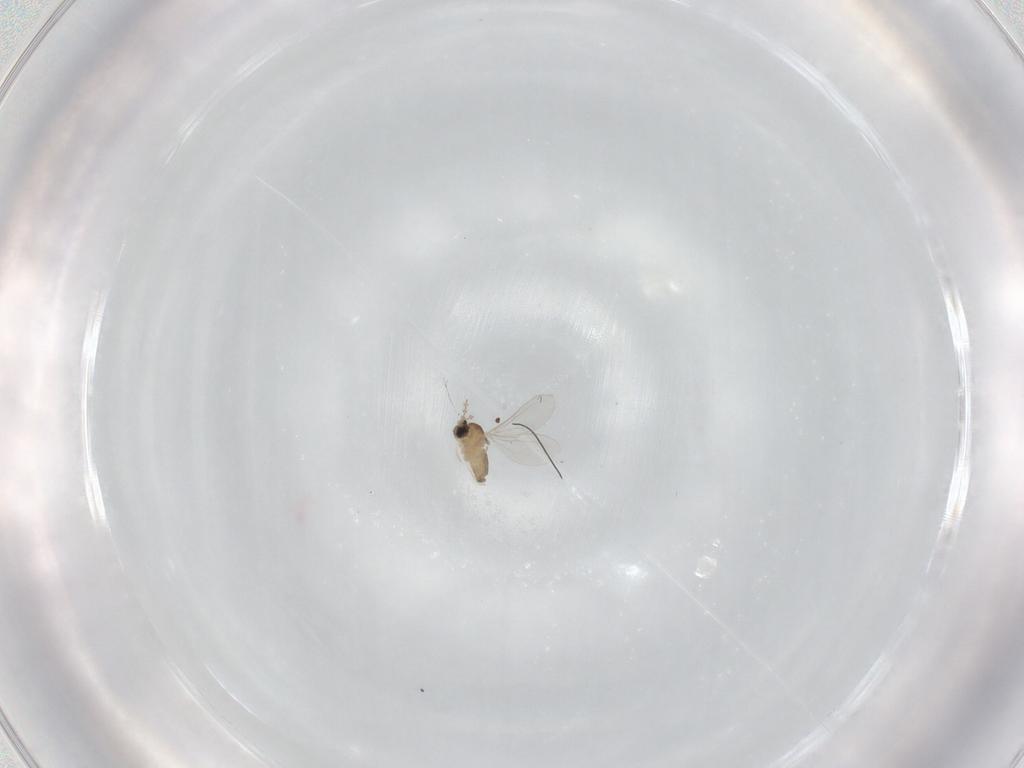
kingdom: Animalia
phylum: Arthropoda
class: Insecta
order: Diptera
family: Cecidomyiidae
